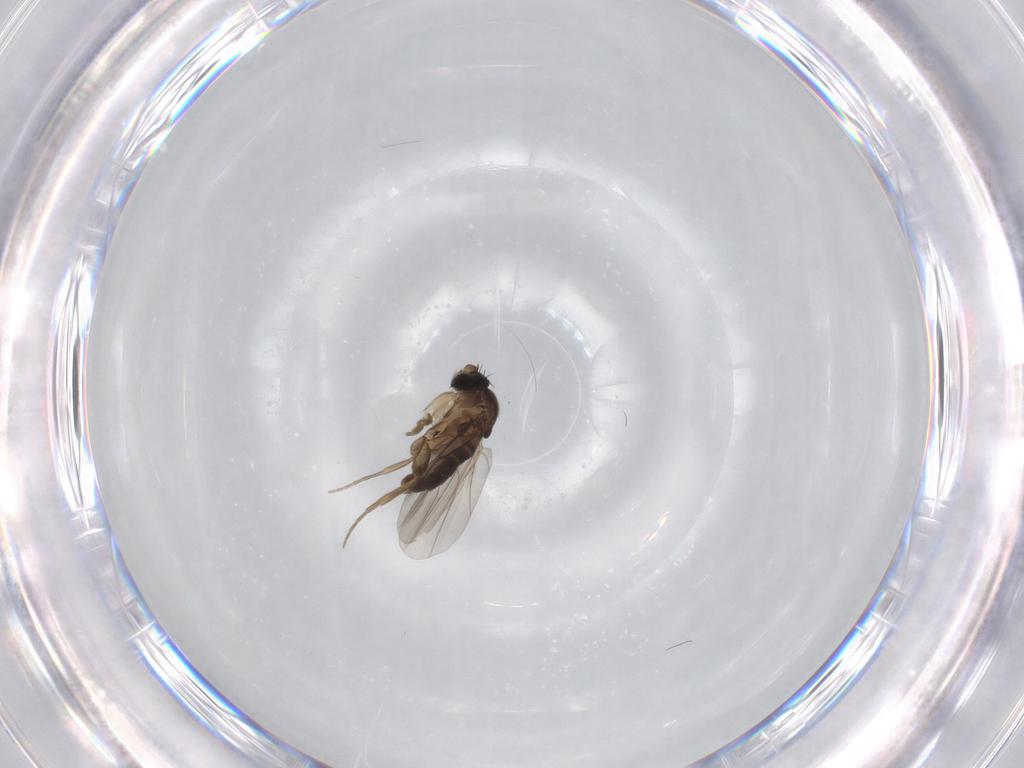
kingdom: Animalia
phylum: Arthropoda
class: Insecta
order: Diptera
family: Phoridae
